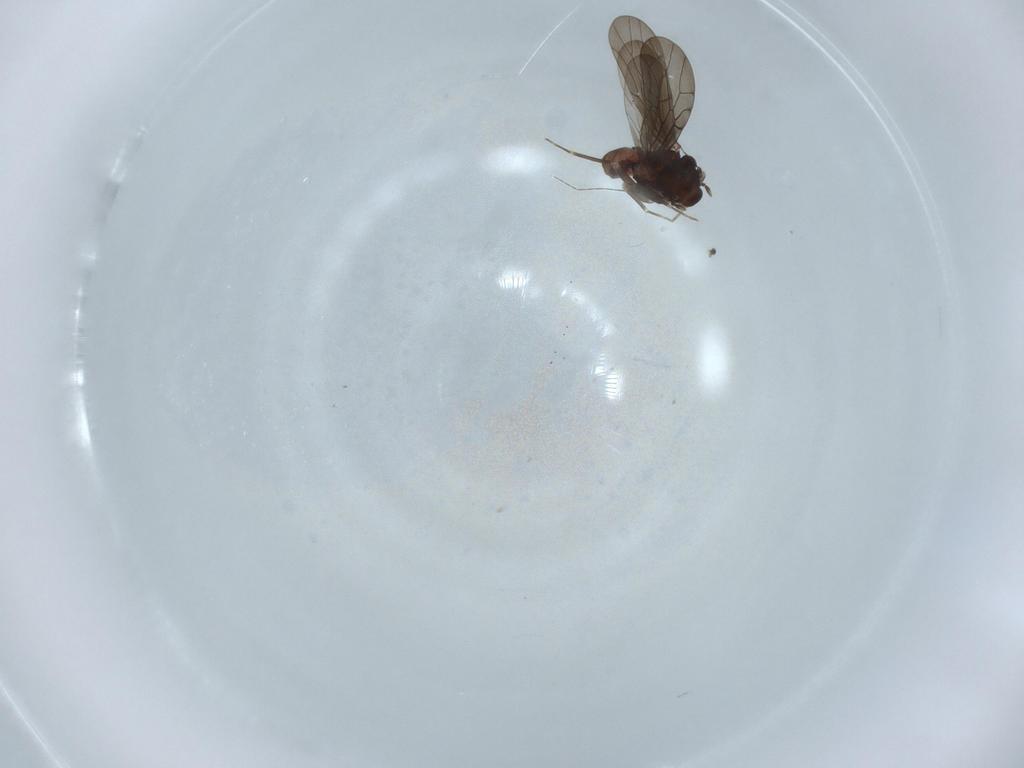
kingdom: Animalia
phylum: Arthropoda
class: Insecta
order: Psocodea
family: Lepidopsocidae
